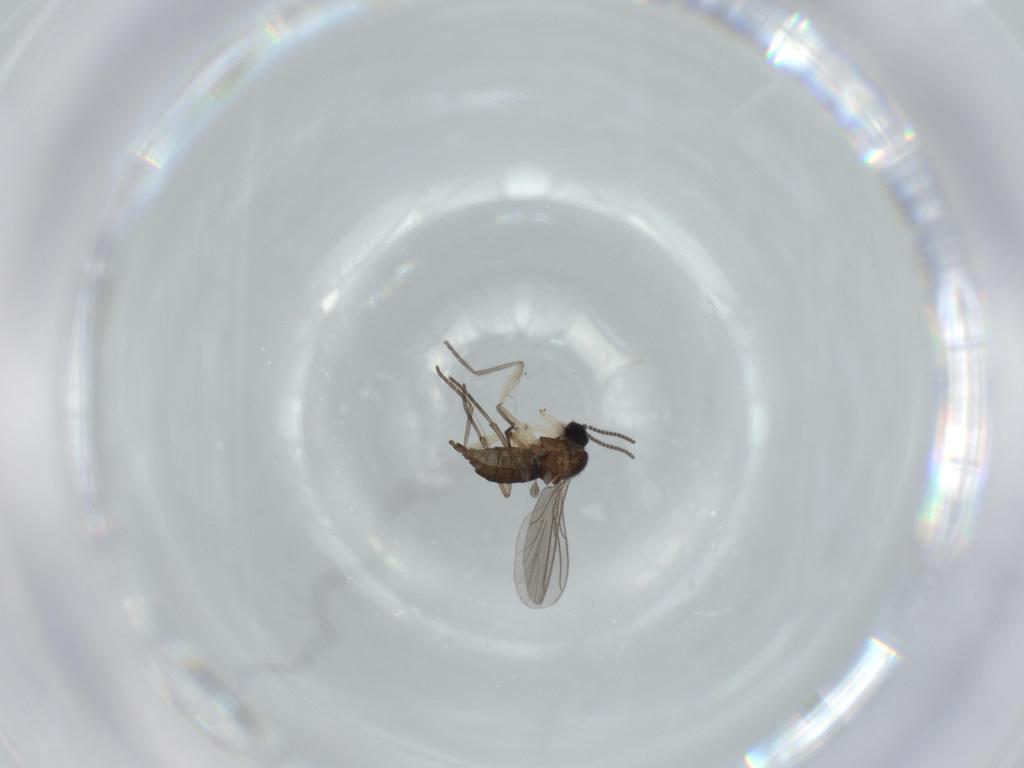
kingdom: Animalia
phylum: Arthropoda
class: Insecta
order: Diptera
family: Sciaridae
